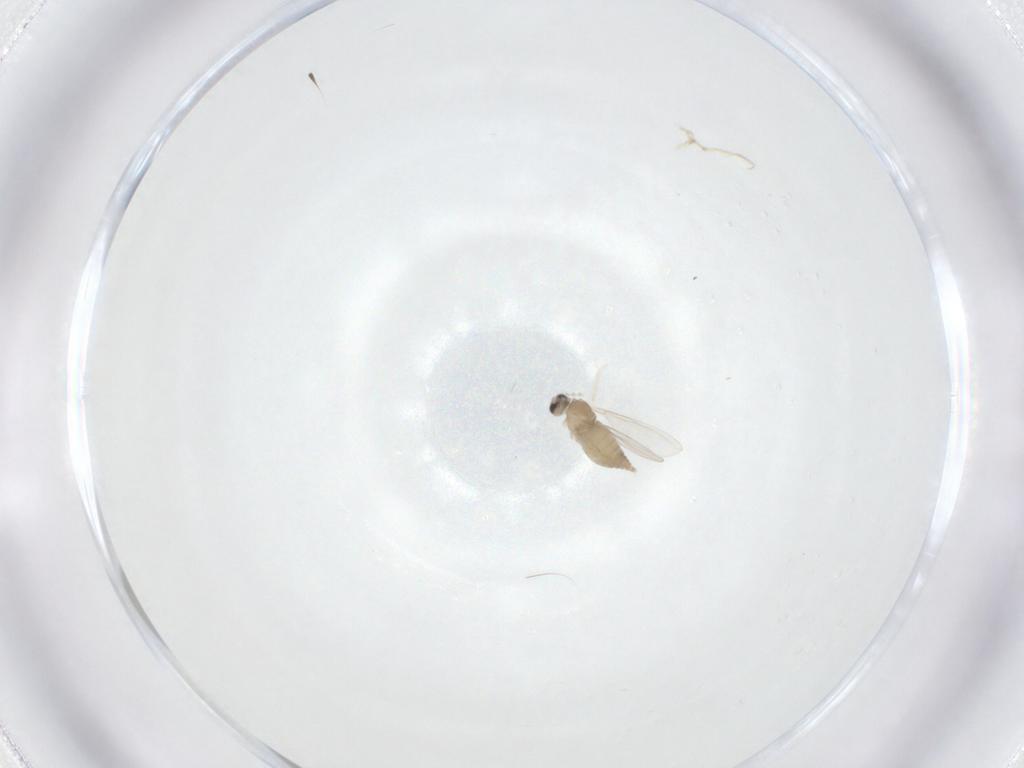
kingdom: Animalia
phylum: Arthropoda
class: Insecta
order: Diptera
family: Cecidomyiidae
